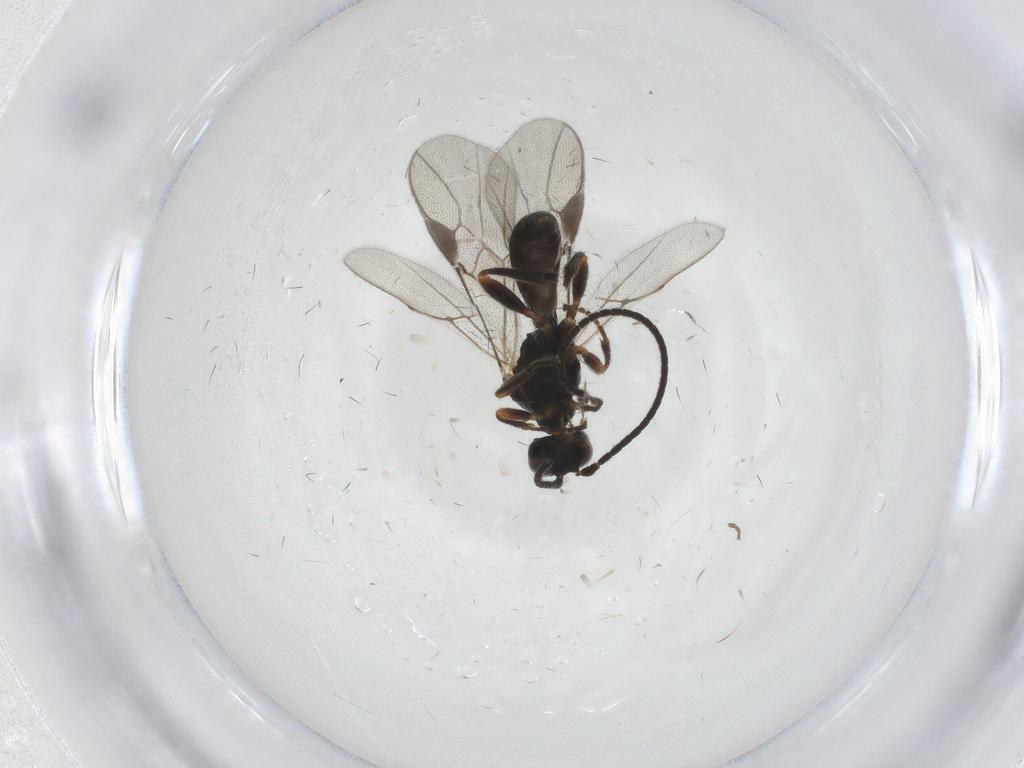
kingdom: Animalia
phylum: Arthropoda
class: Insecta
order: Hymenoptera
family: Braconidae
